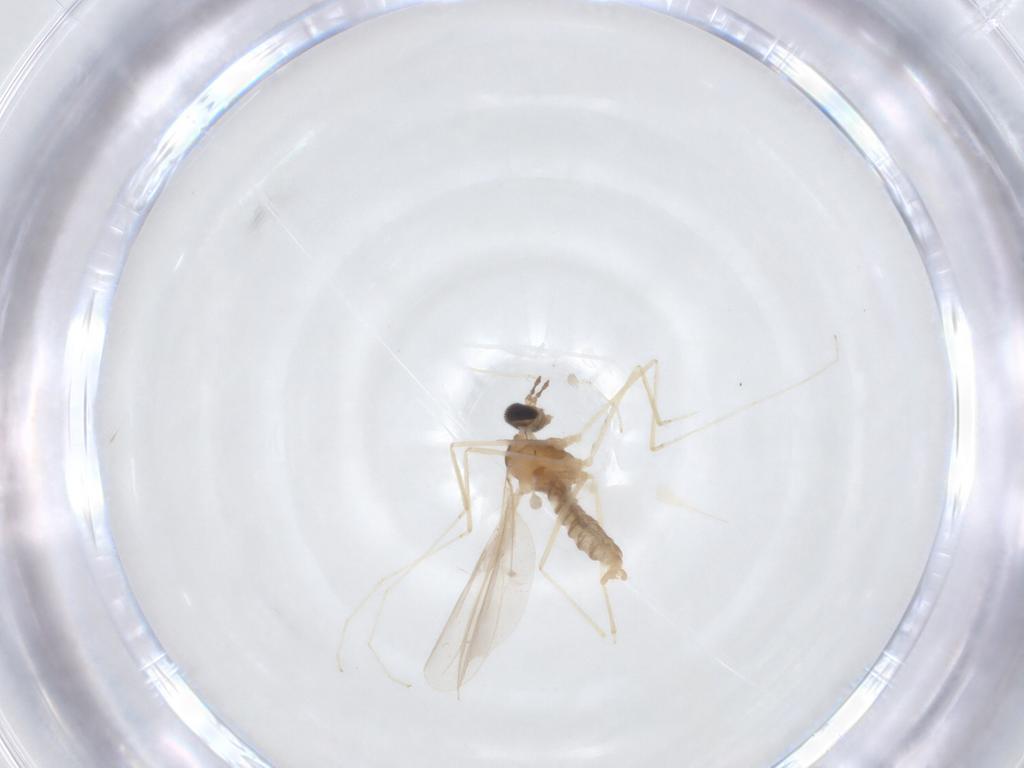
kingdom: Animalia
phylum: Arthropoda
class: Insecta
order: Diptera
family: Cecidomyiidae
